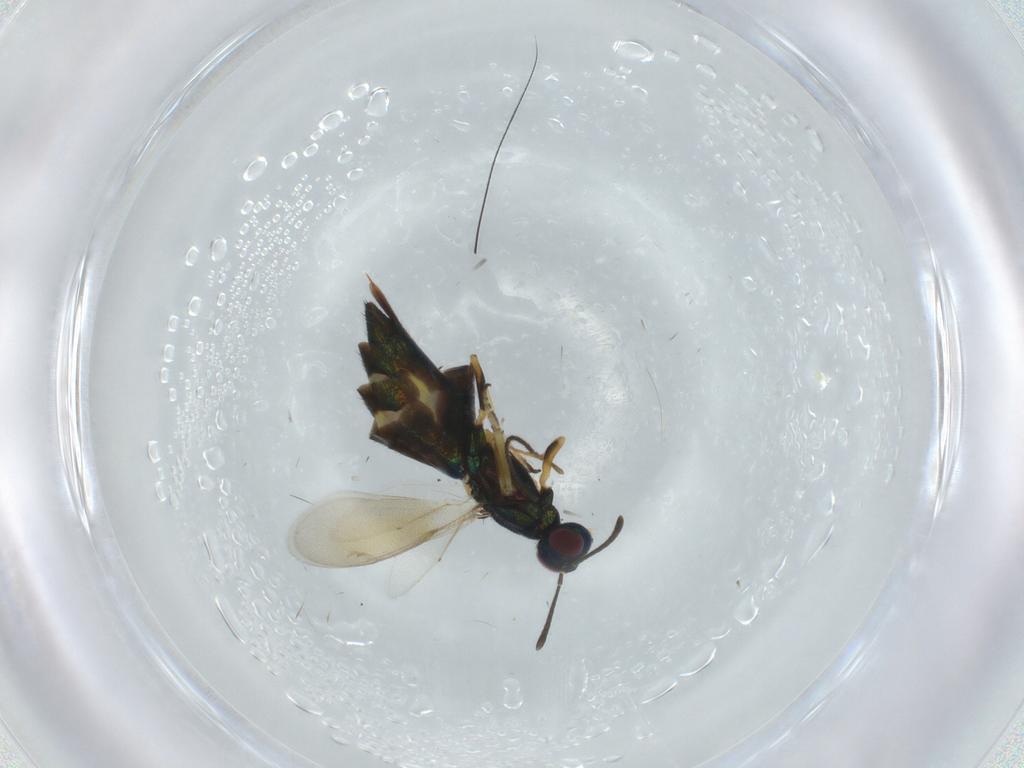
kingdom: Animalia
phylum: Arthropoda
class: Insecta
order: Hymenoptera
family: Eupelmidae
